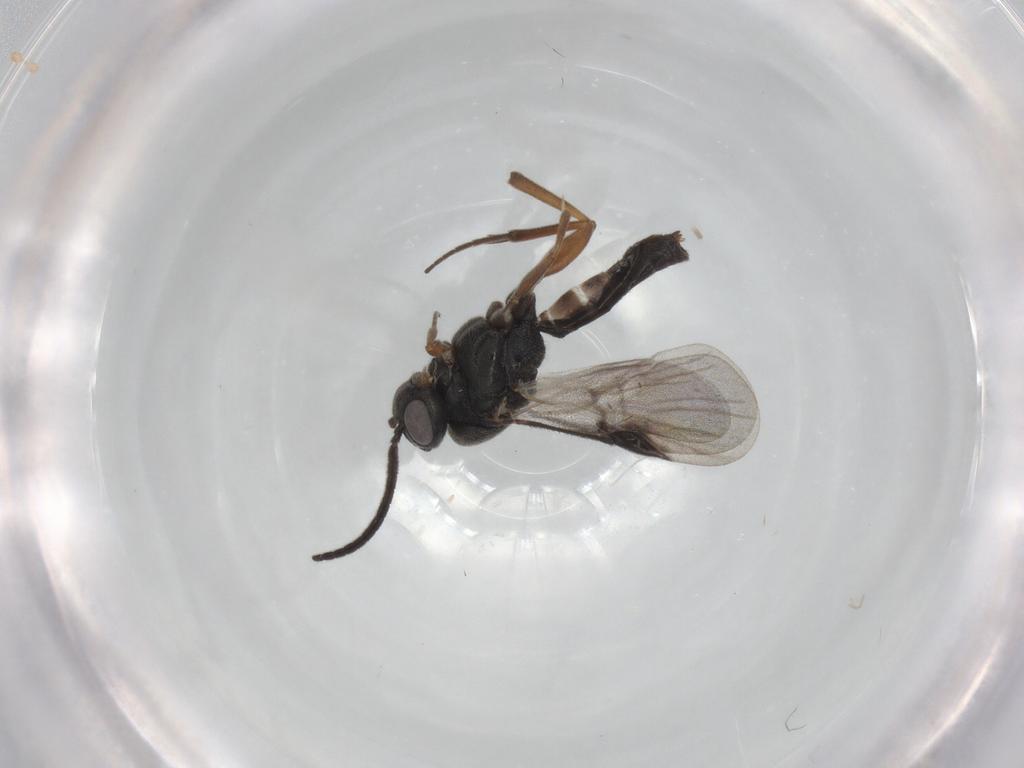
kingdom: Animalia
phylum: Arthropoda
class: Insecta
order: Hymenoptera
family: Braconidae
